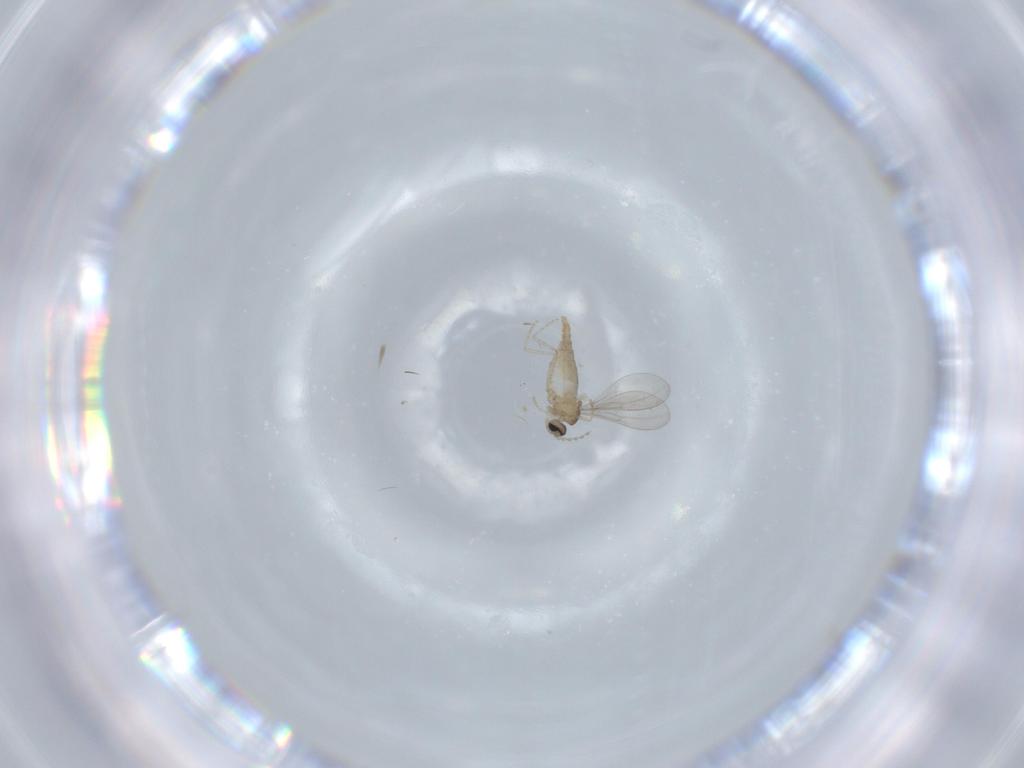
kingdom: Animalia
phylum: Arthropoda
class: Insecta
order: Diptera
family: Cecidomyiidae
